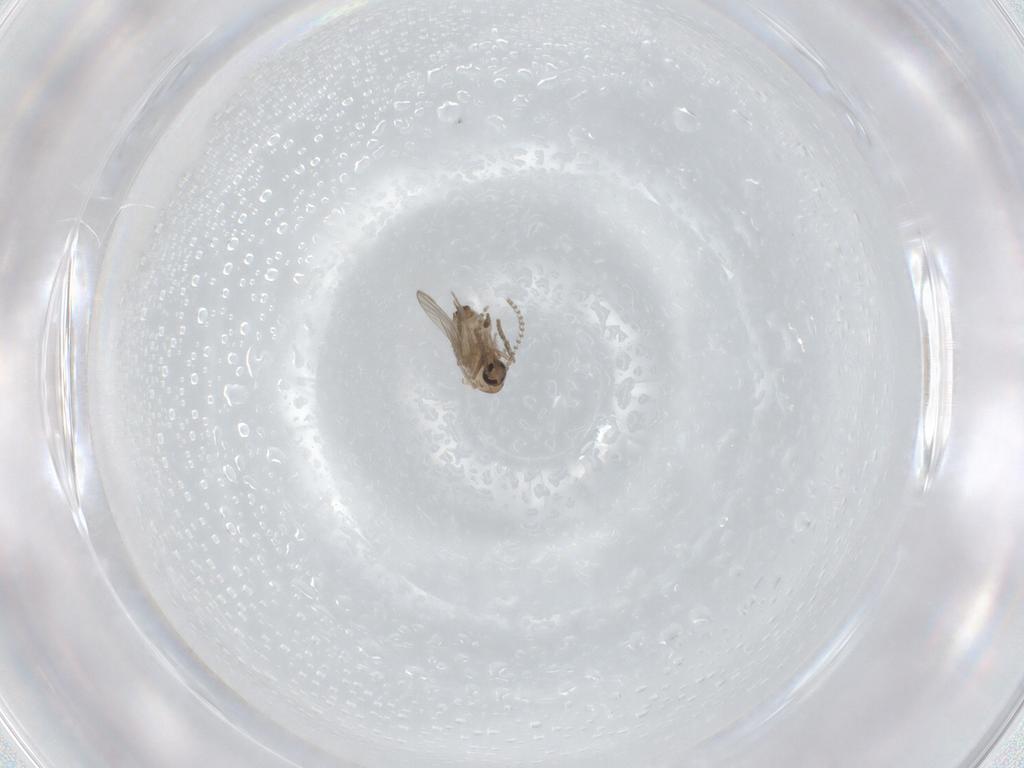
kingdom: Animalia
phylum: Arthropoda
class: Insecta
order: Diptera
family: Psychodidae
